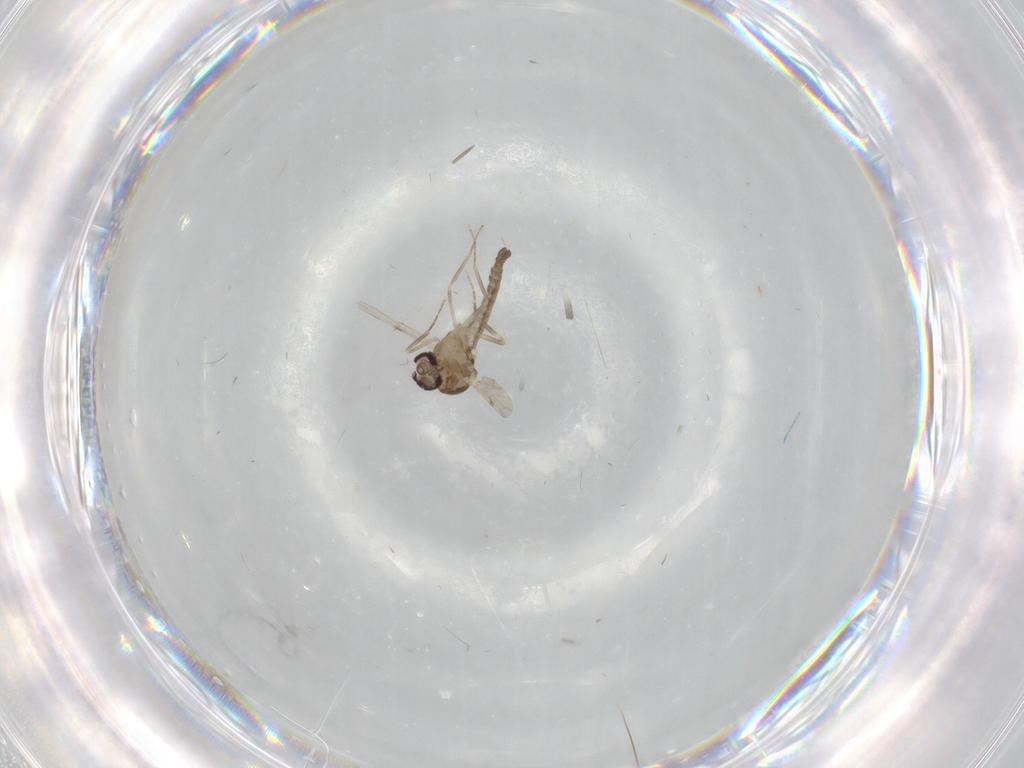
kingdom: Animalia
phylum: Arthropoda
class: Insecta
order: Diptera
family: Ceratopogonidae
